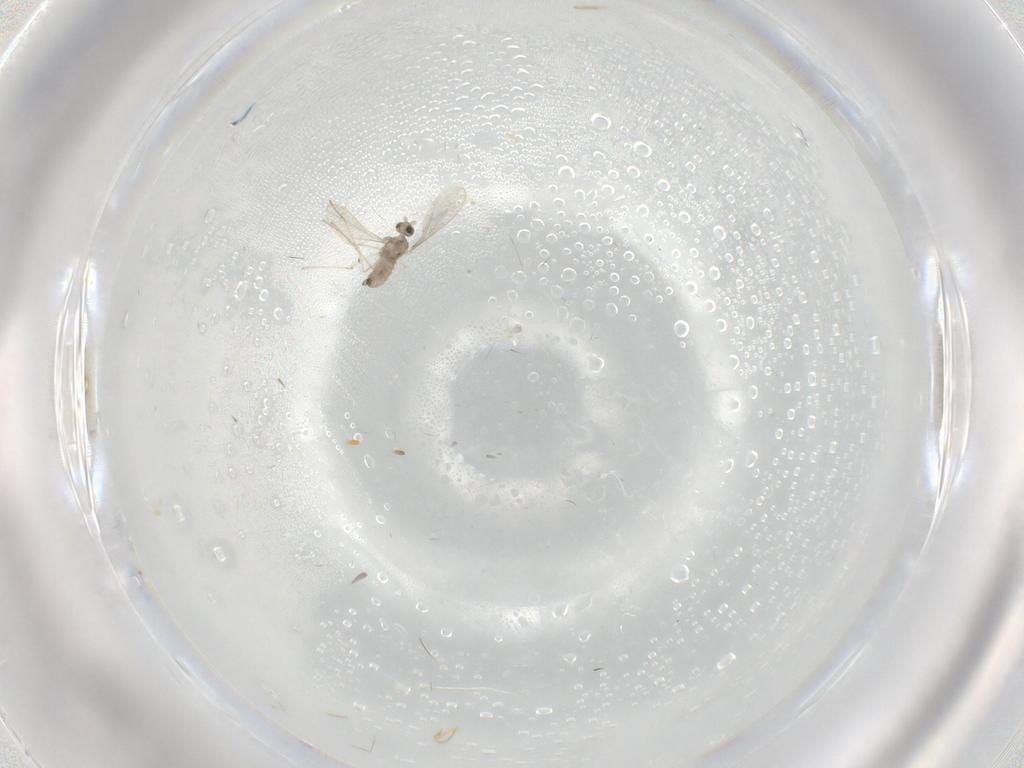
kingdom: Animalia
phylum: Arthropoda
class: Insecta
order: Diptera
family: Cecidomyiidae
